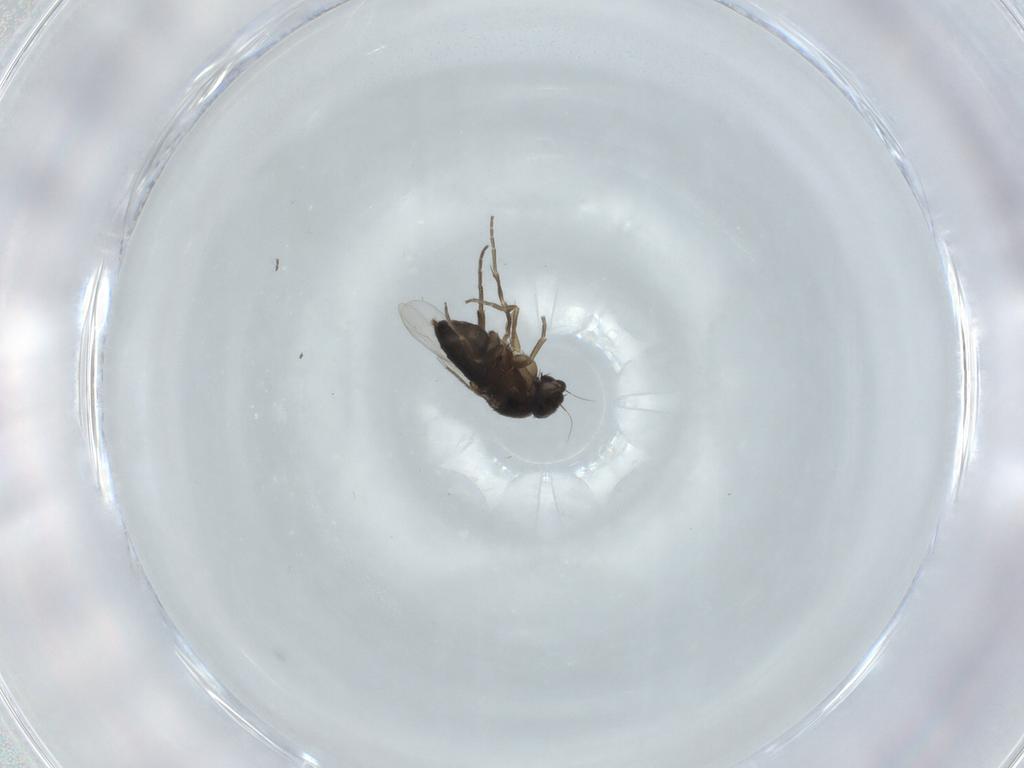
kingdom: Animalia
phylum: Arthropoda
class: Insecta
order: Diptera
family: Phoridae
